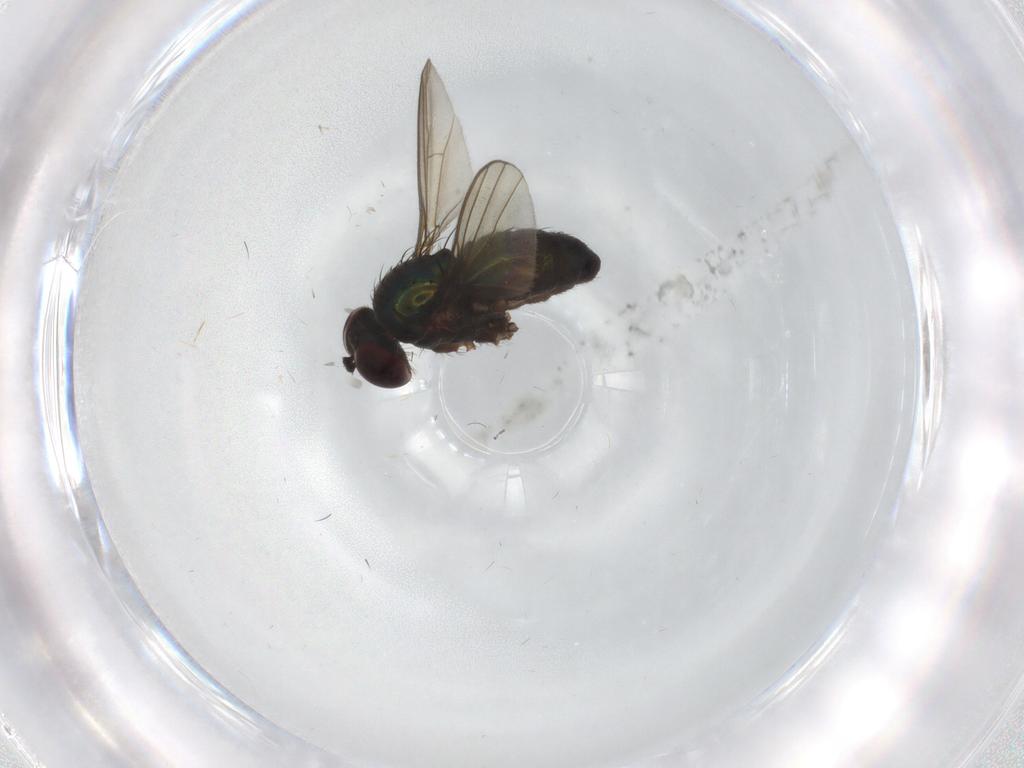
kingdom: Animalia
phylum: Arthropoda
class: Insecta
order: Diptera
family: Dolichopodidae
